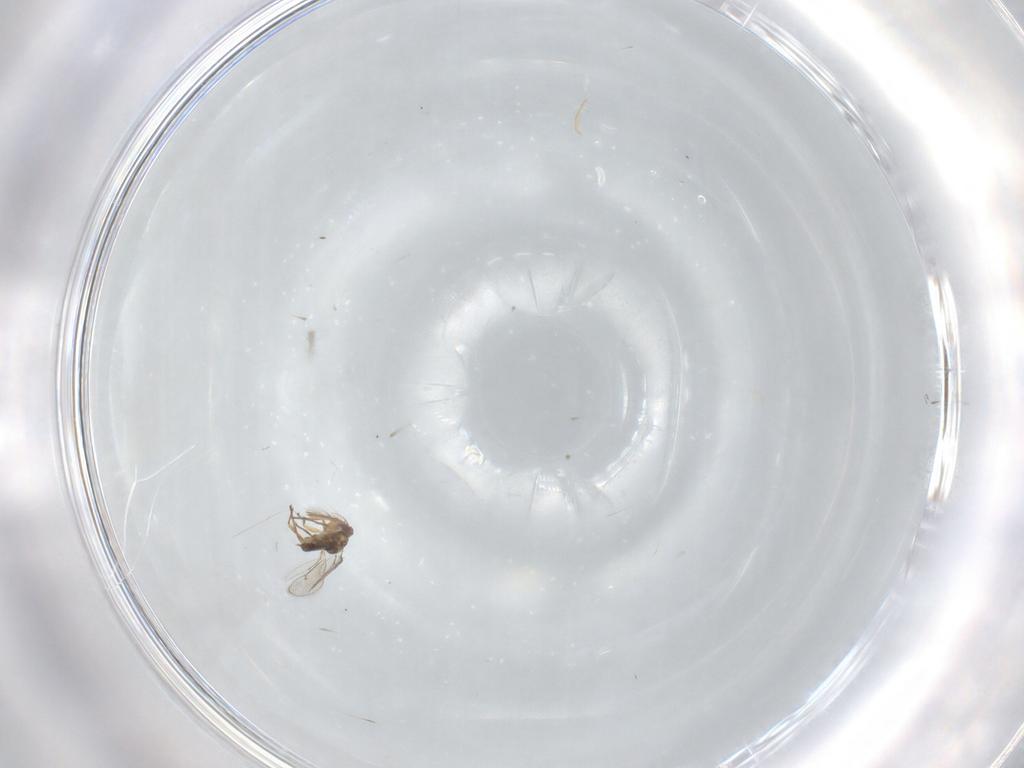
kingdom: Animalia
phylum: Arthropoda
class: Insecta
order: Hymenoptera
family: Eulophidae
